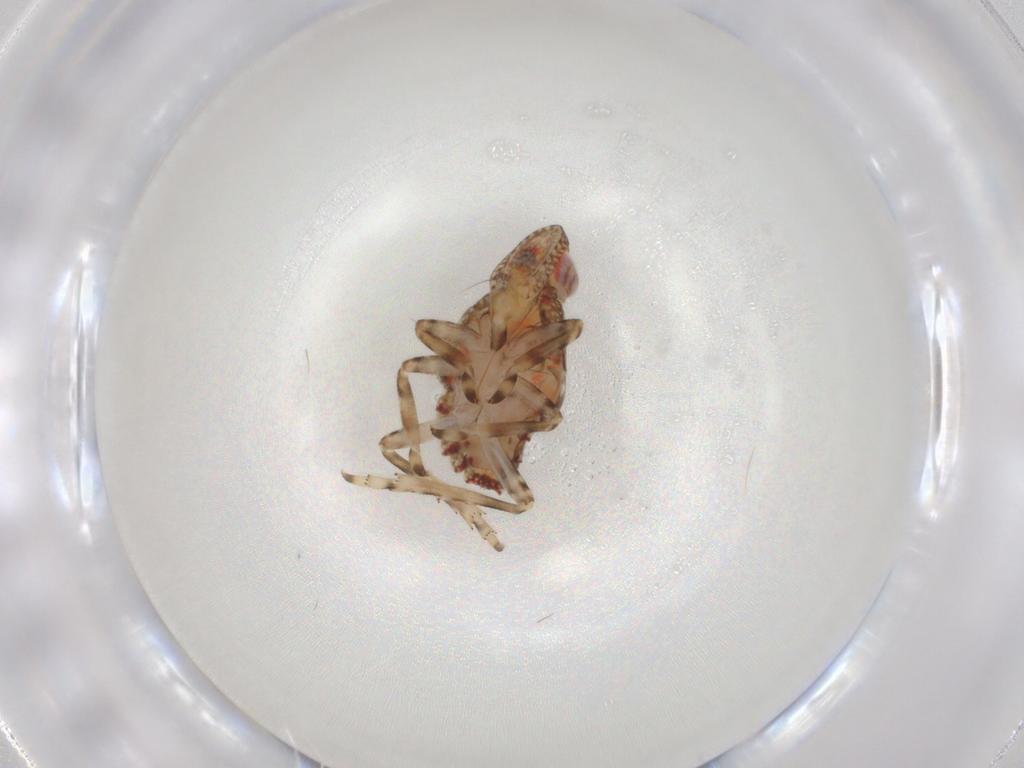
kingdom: Animalia
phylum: Arthropoda
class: Insecta
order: Hemiptera
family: Tropiduchidae
